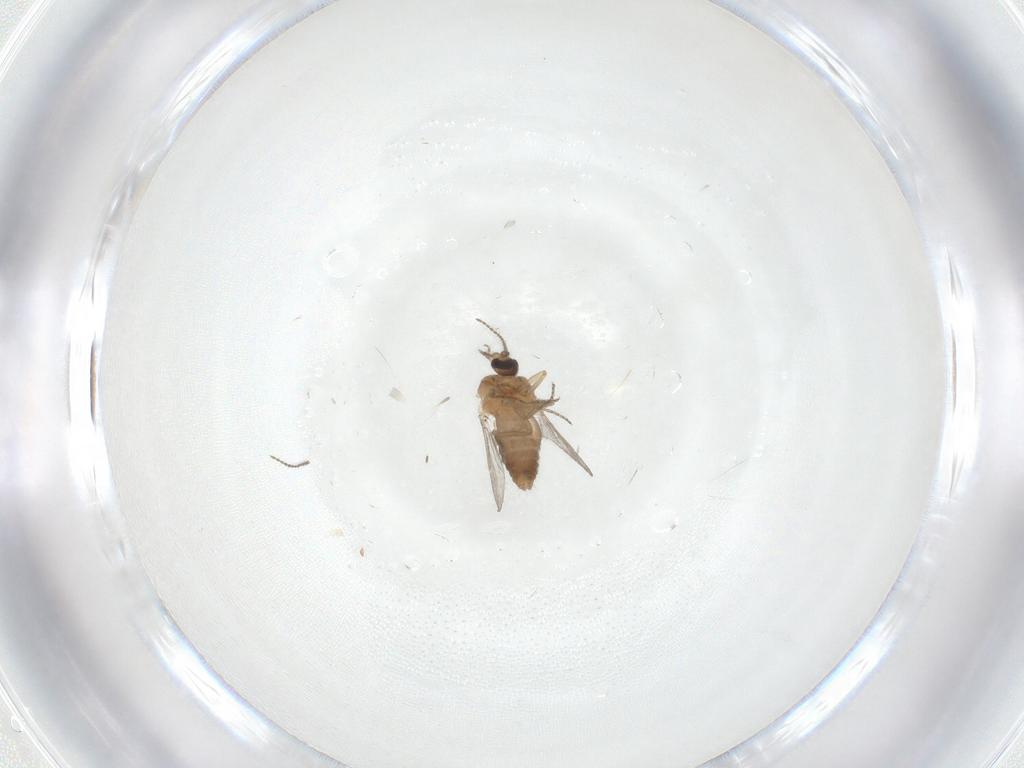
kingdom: Animalia
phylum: Arthropoda
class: Insecta
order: Diptera
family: Ceratopogonidae
